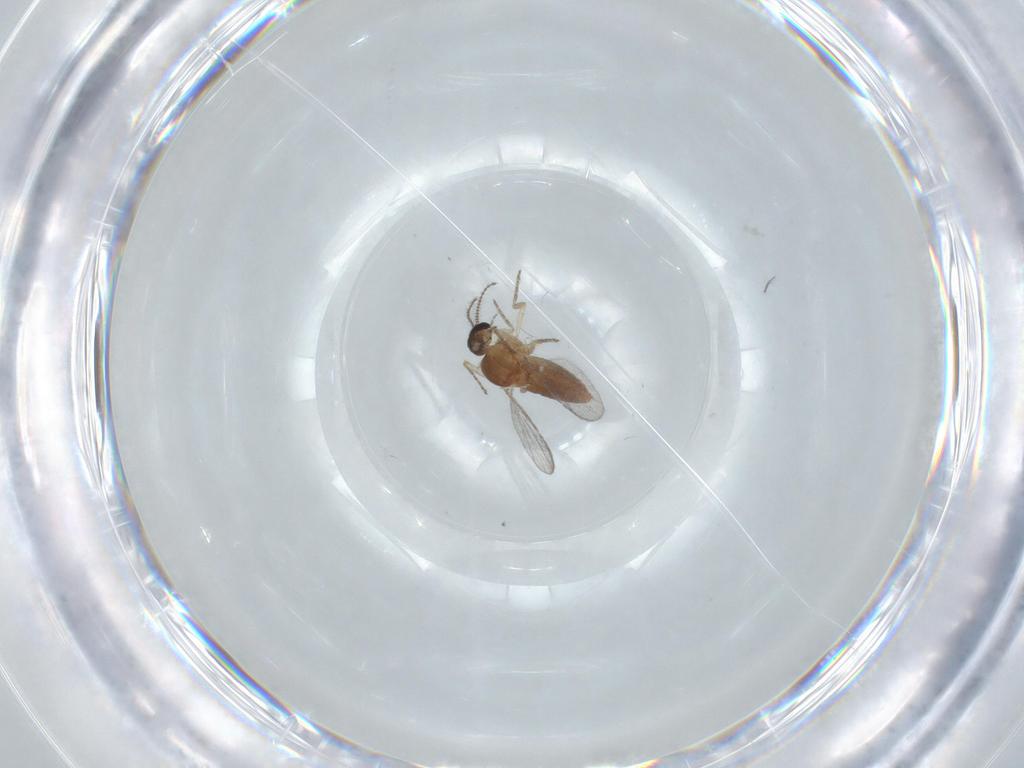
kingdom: Animalia
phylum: Arthropoda
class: Insecta
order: Diptera
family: Ceratopogonidae
